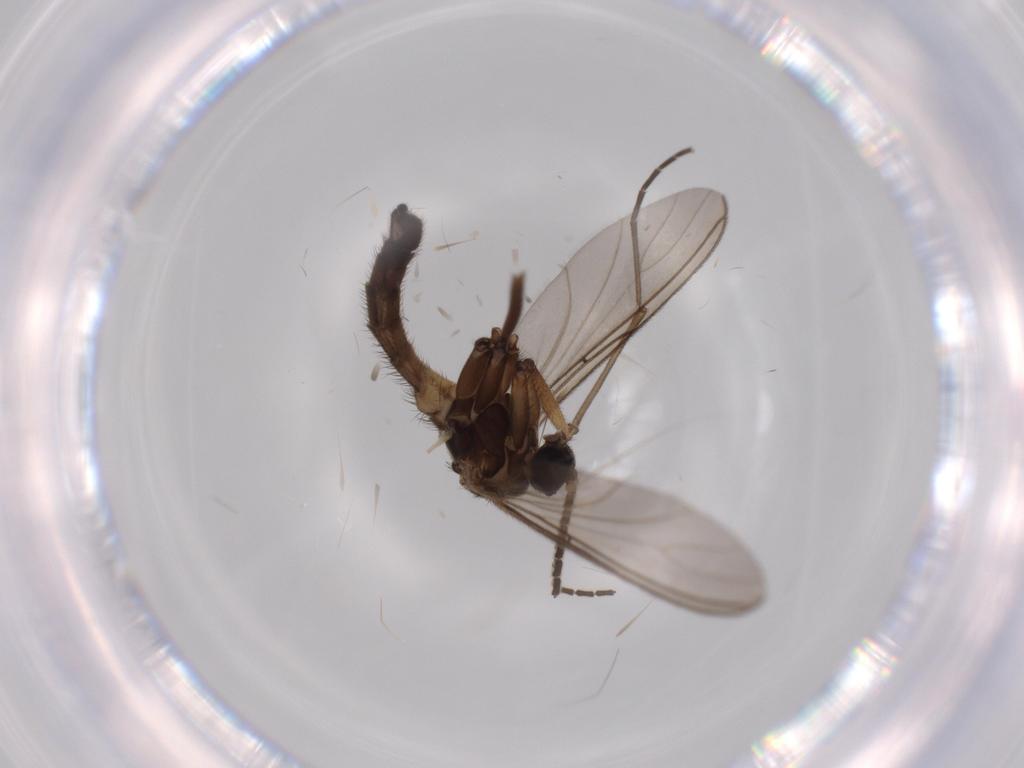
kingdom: Animalia
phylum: Arthropoda
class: Insecta
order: Diptera
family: Sciaridae
